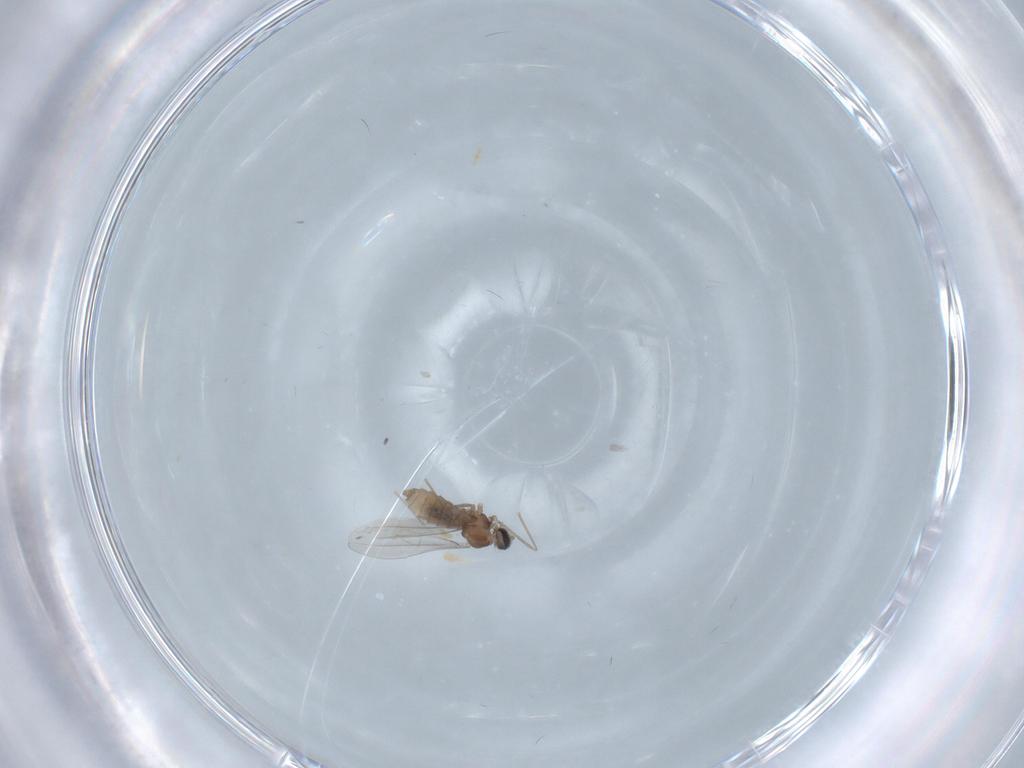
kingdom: Animalia
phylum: Arthropoda
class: Insecta
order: Diptera
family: Cecidomyiidae
